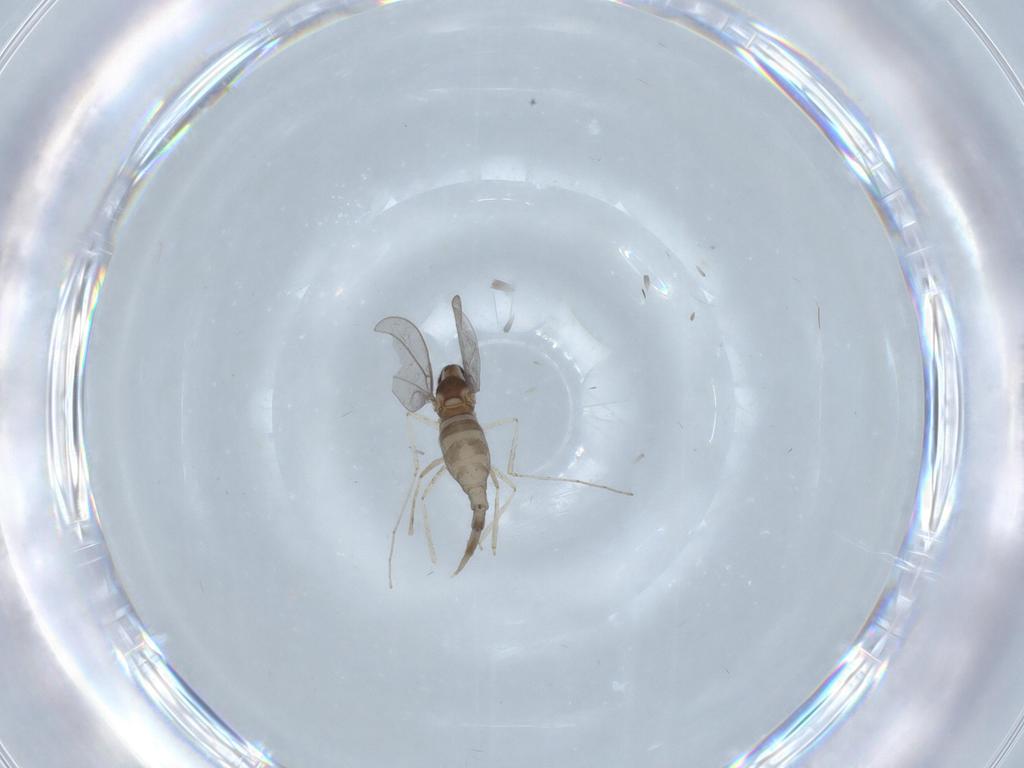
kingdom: Animalia
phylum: Arthropoda
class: Insecta
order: Diptera
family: Cecidomyiidae
